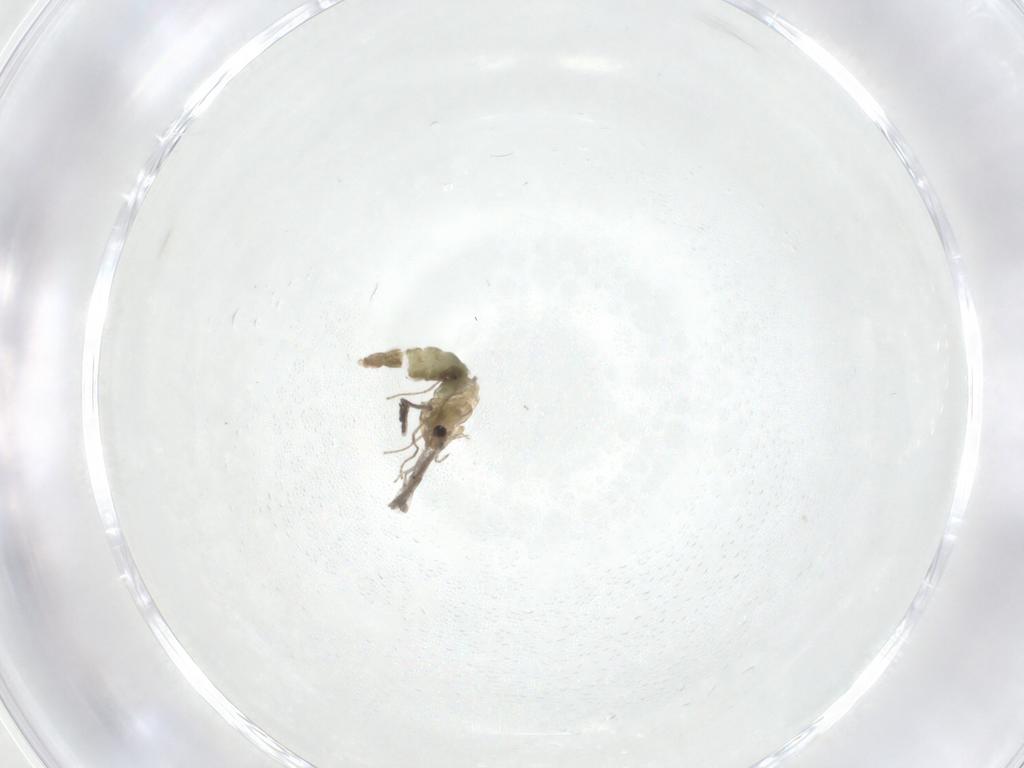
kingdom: Animalia
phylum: Arthropoda
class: Insecta
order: Diptera
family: Chironomidae
